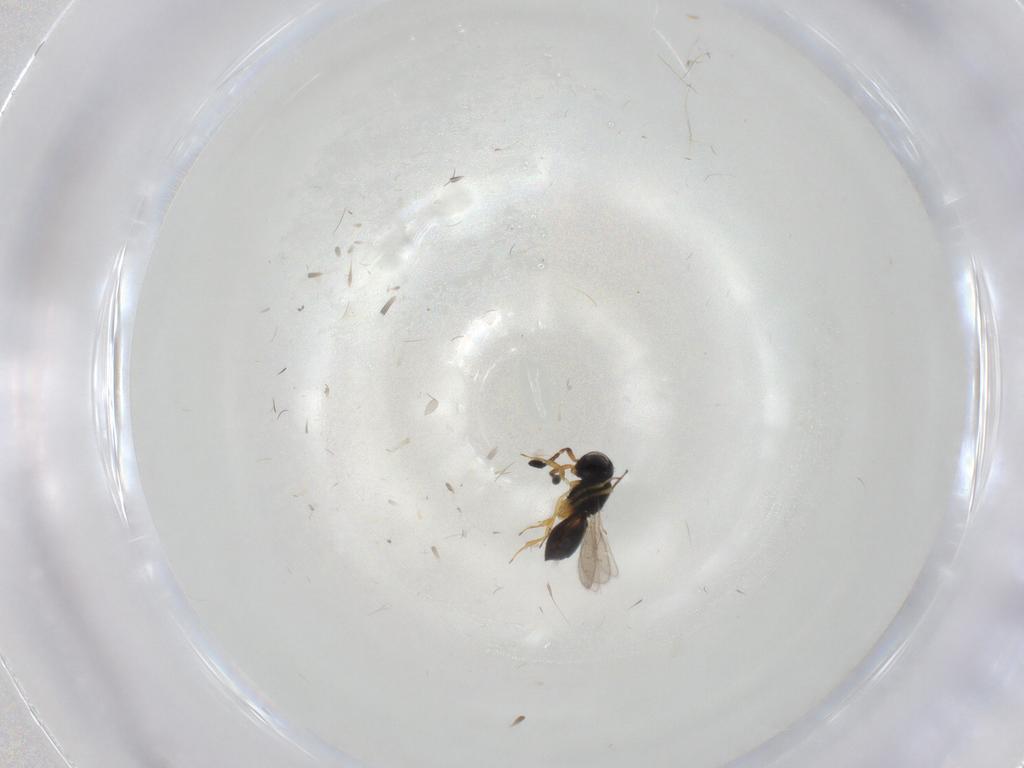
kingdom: Animalia
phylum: Arthropoda
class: Insecta
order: Hymenoptera
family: Scelionidae
